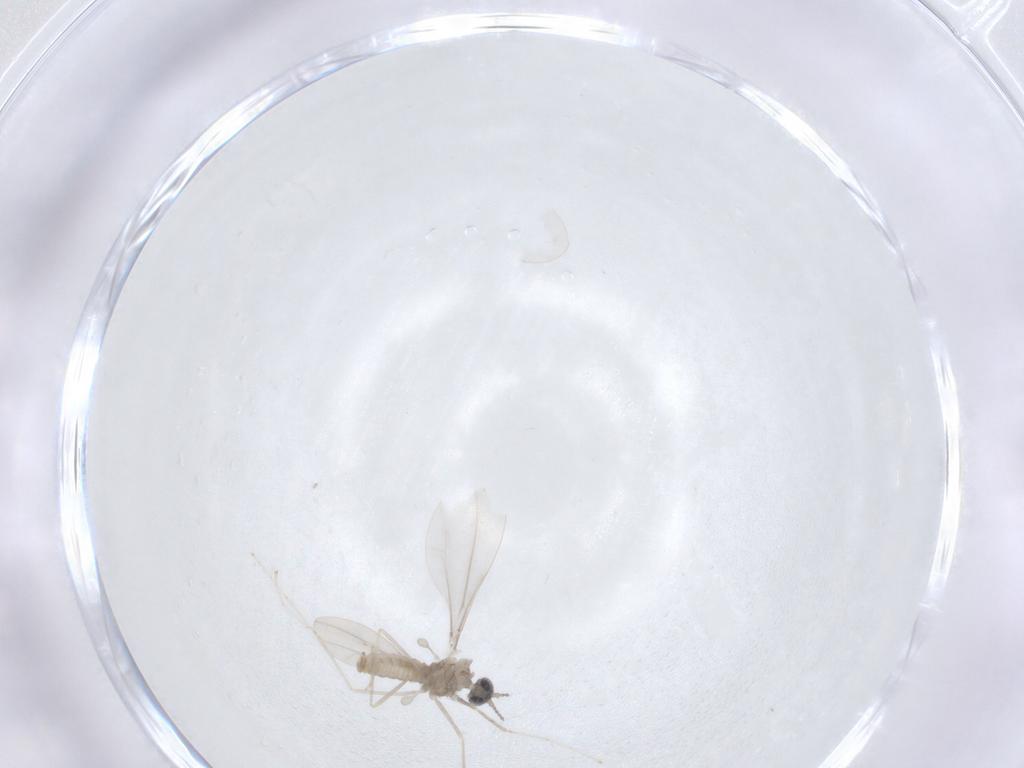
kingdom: Animalia
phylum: Arthropoda
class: Insecta
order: Diptera
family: Cecidomyiidae
